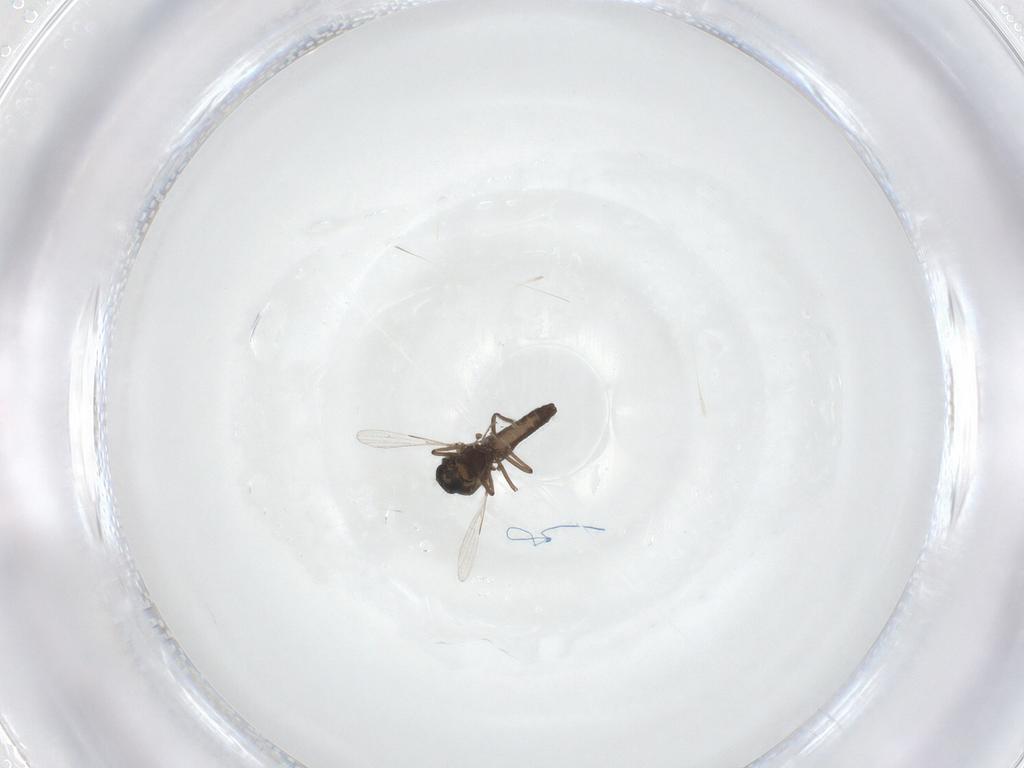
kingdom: Animalia
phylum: Arthropoda
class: Insecta
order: Diptera
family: Ceratopogonidae
